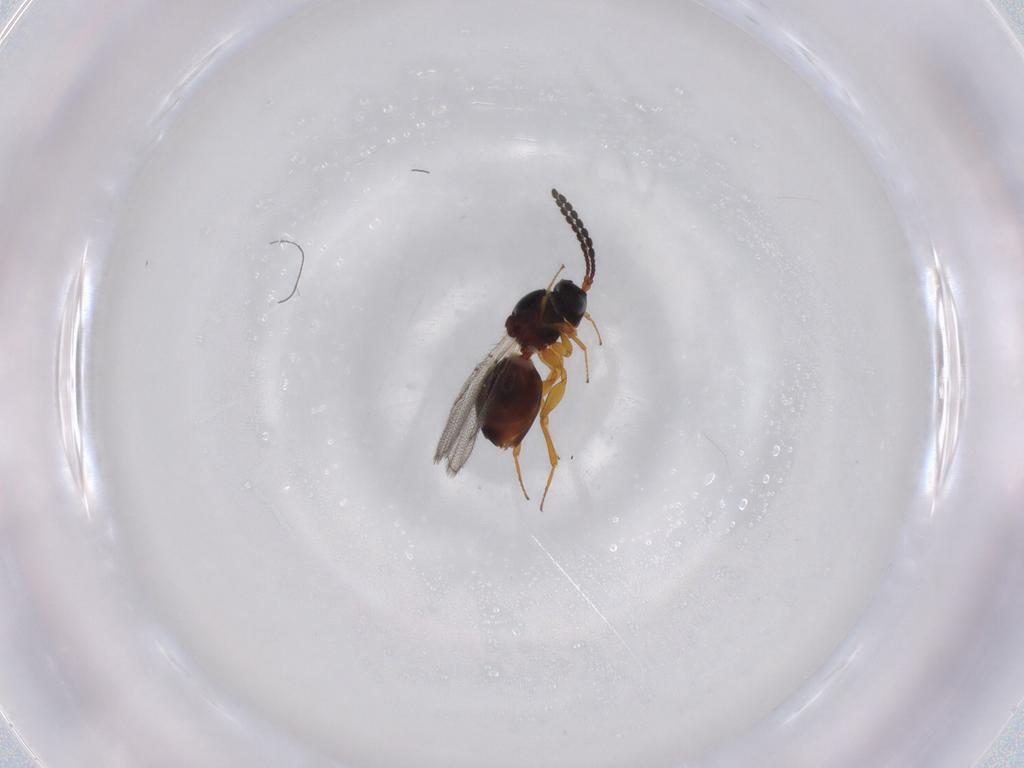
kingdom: Animalia
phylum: Arthropoda
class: Insecta
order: Hymenoptera
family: Figitidae
